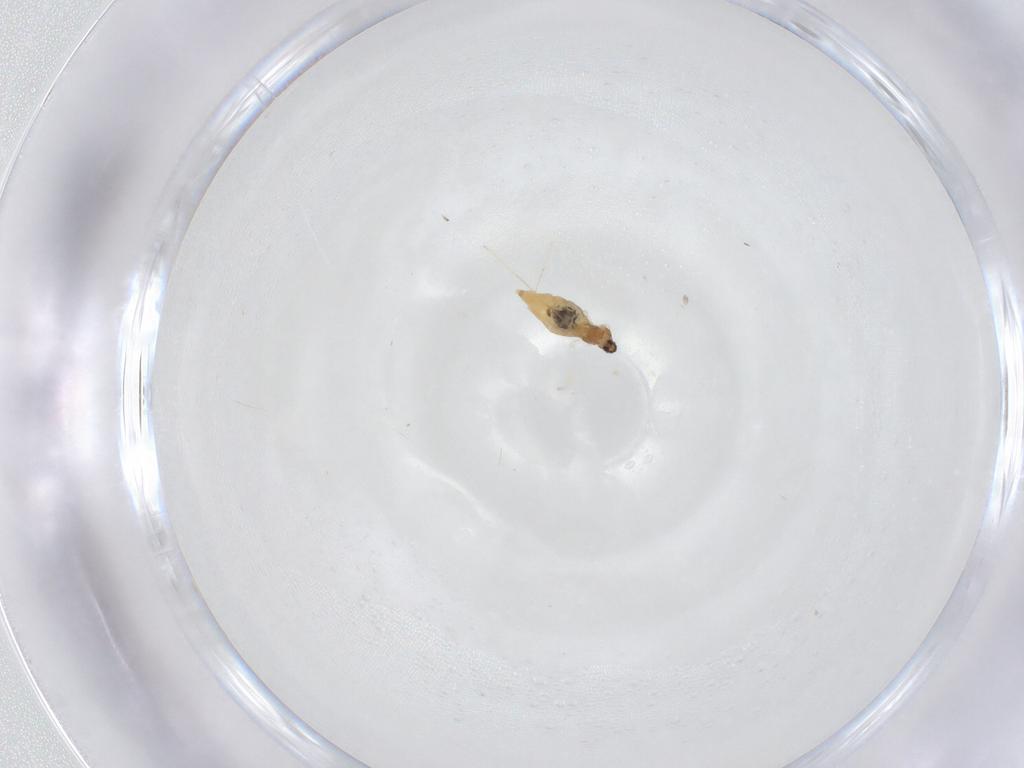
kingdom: Animalia
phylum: Arthropoda
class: Insecta
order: Diptera
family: Cecidomyiidae
